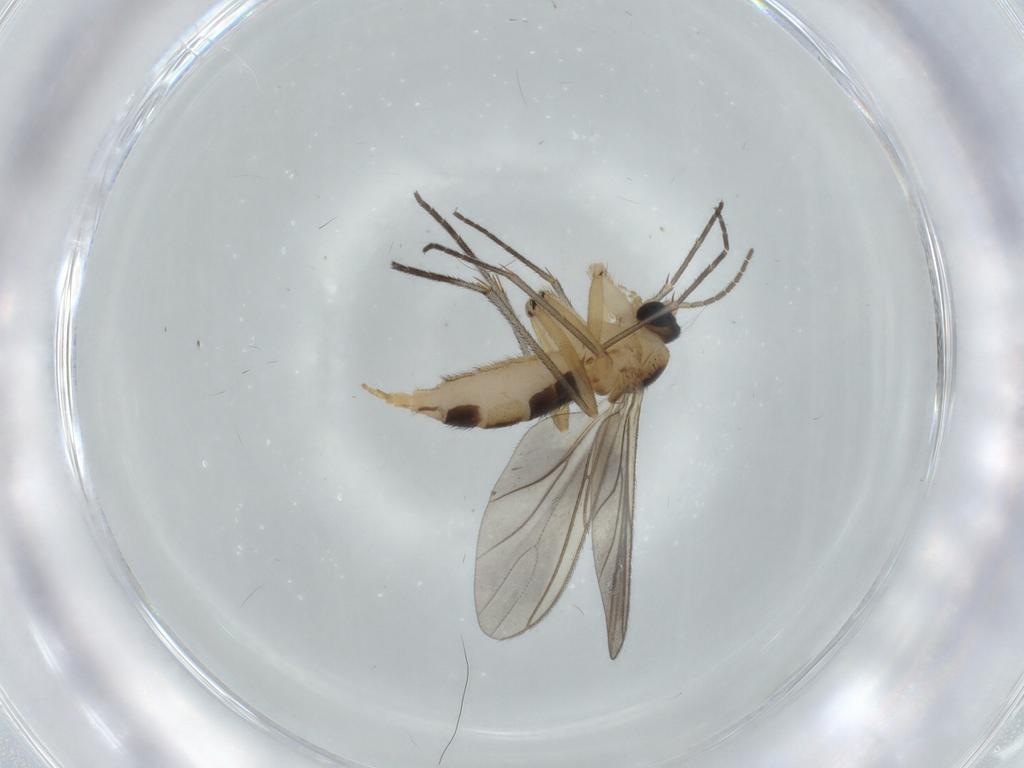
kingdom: Animalia
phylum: Arthropoda
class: Insecta
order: Diptera
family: Sciaridae
